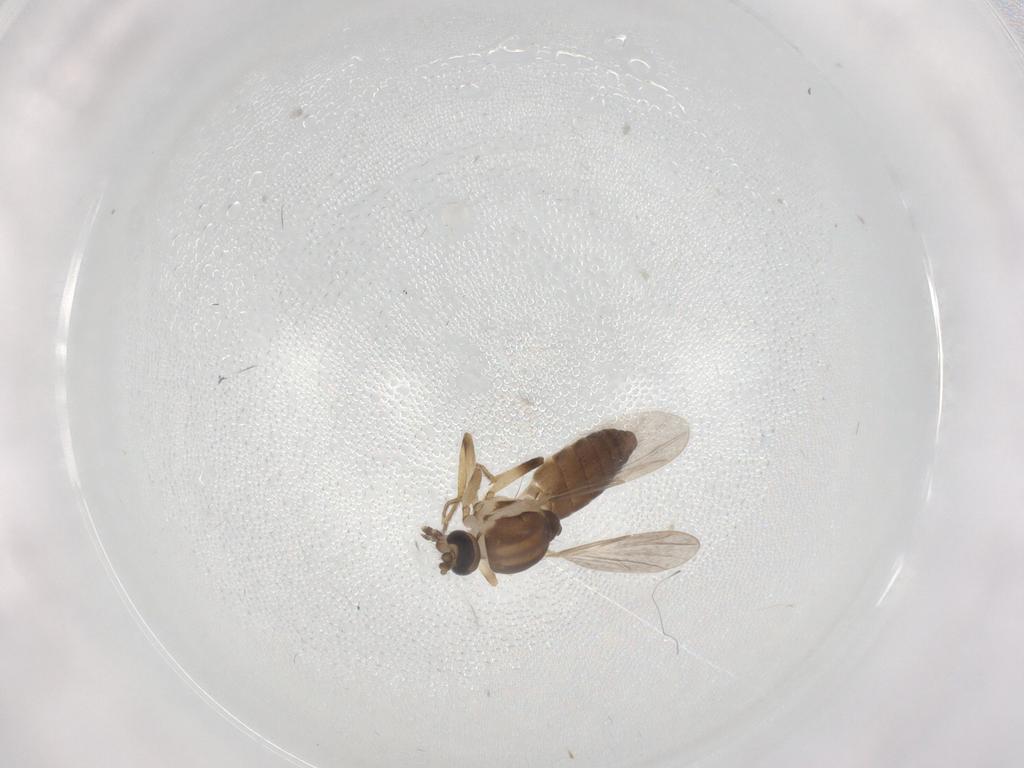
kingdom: Animalia
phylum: Arthropoda
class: Insecta
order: Diptera
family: Ceratopogonidae
